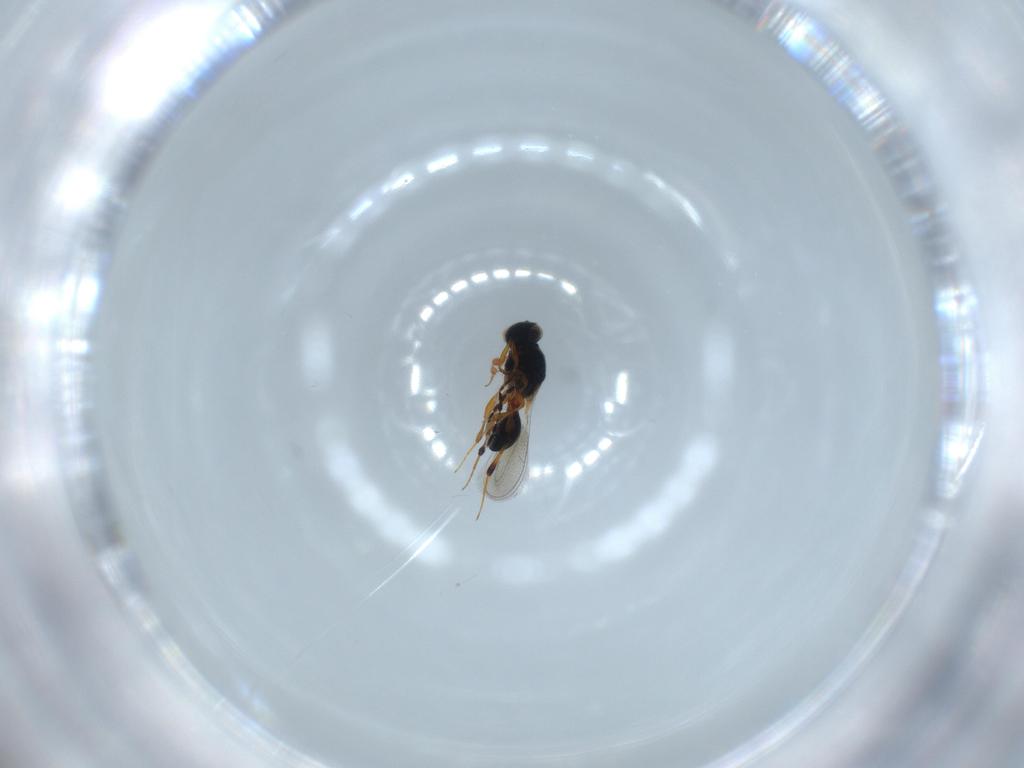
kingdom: Animalia
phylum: Arthropoda
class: Insecta
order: Hymenoptera
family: Platygastridae
